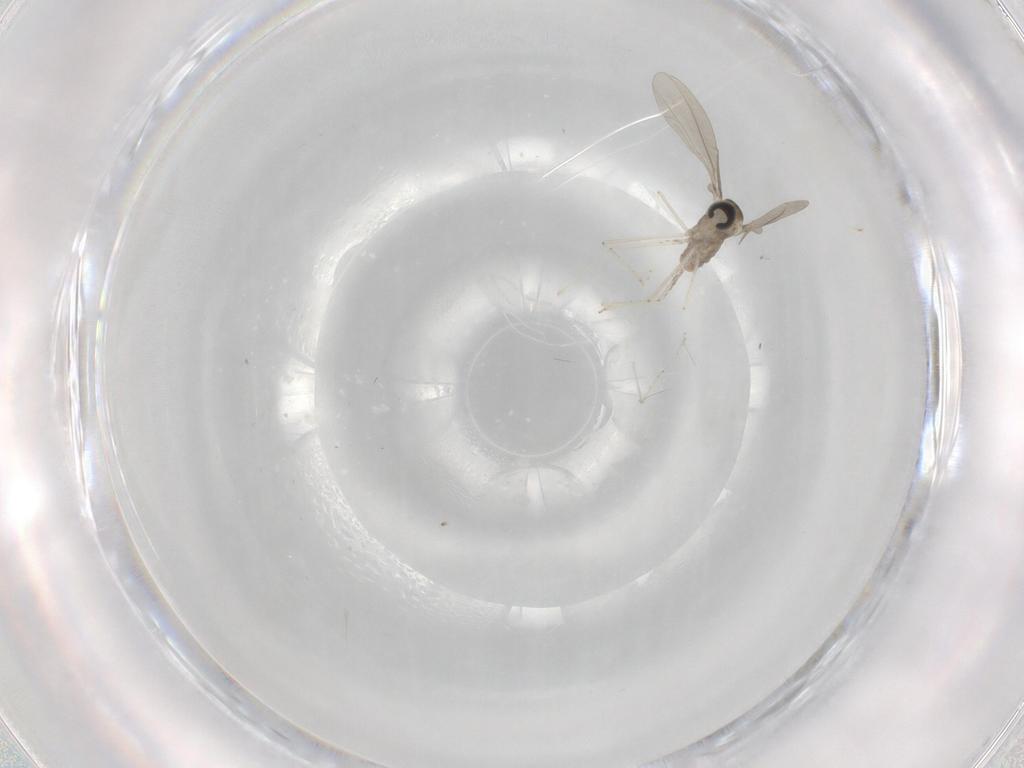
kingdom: Animalia
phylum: Arthropoda
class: Insecta
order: Diptera
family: Cecidomyiidae
